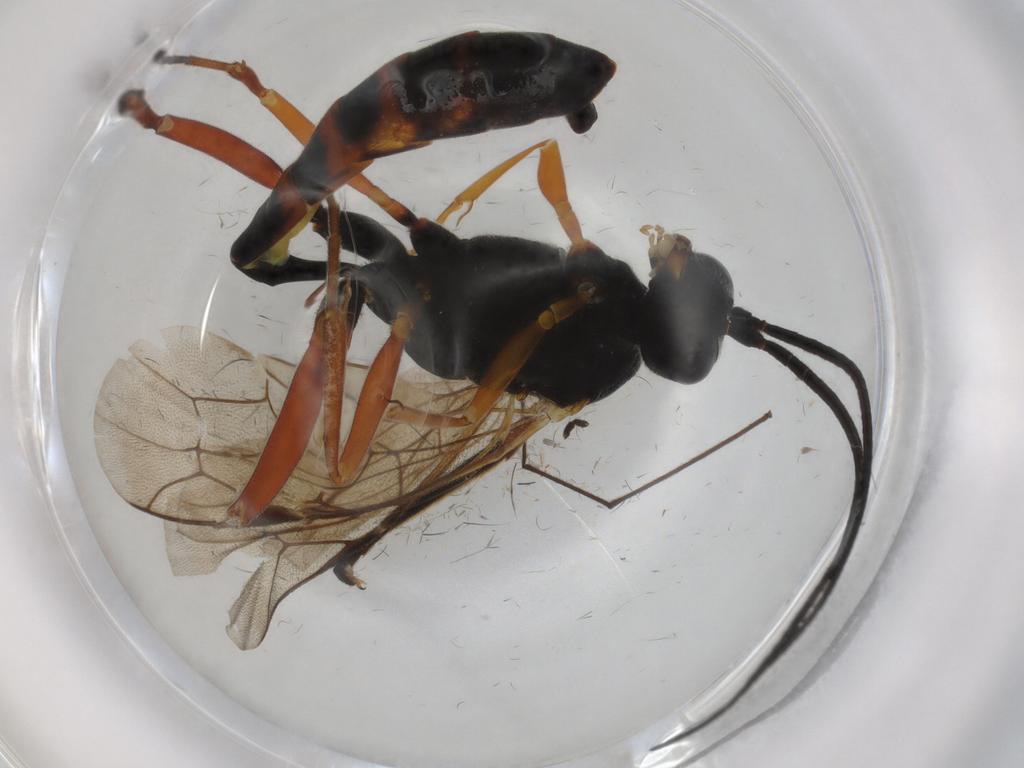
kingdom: Animalia
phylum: Arthropoda
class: Insecta
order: Hymenoptera
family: Ichneumonidae
